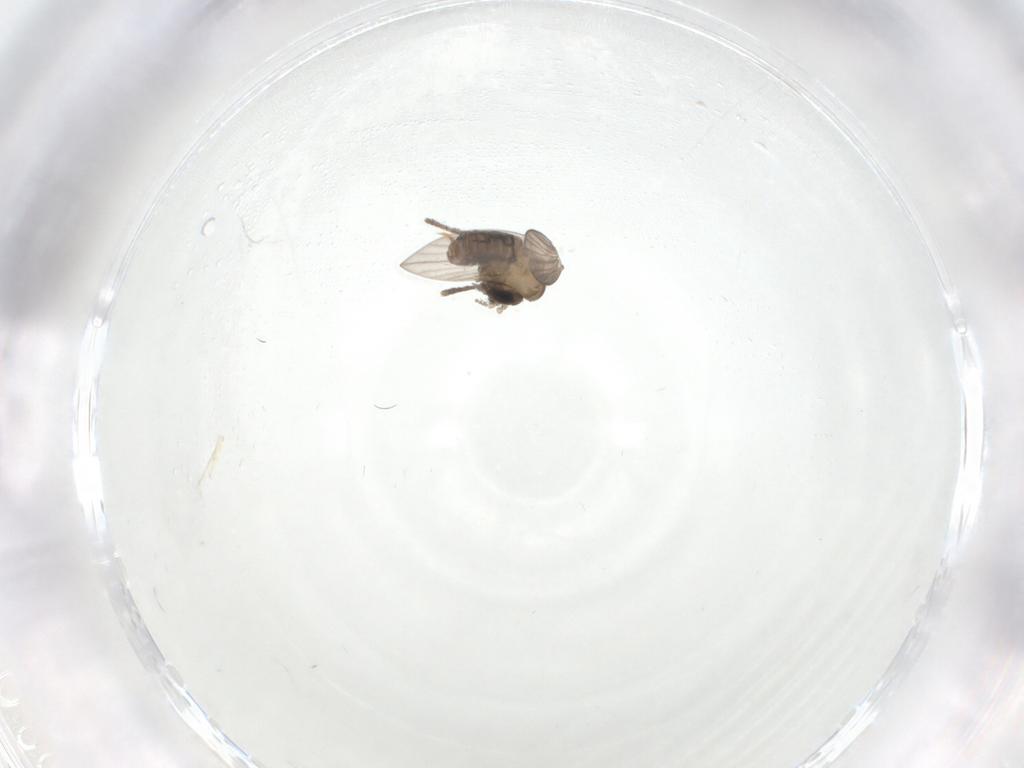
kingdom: Animalia
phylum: Arthropoda
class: Insecta
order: Diptera
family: Psychodidae
